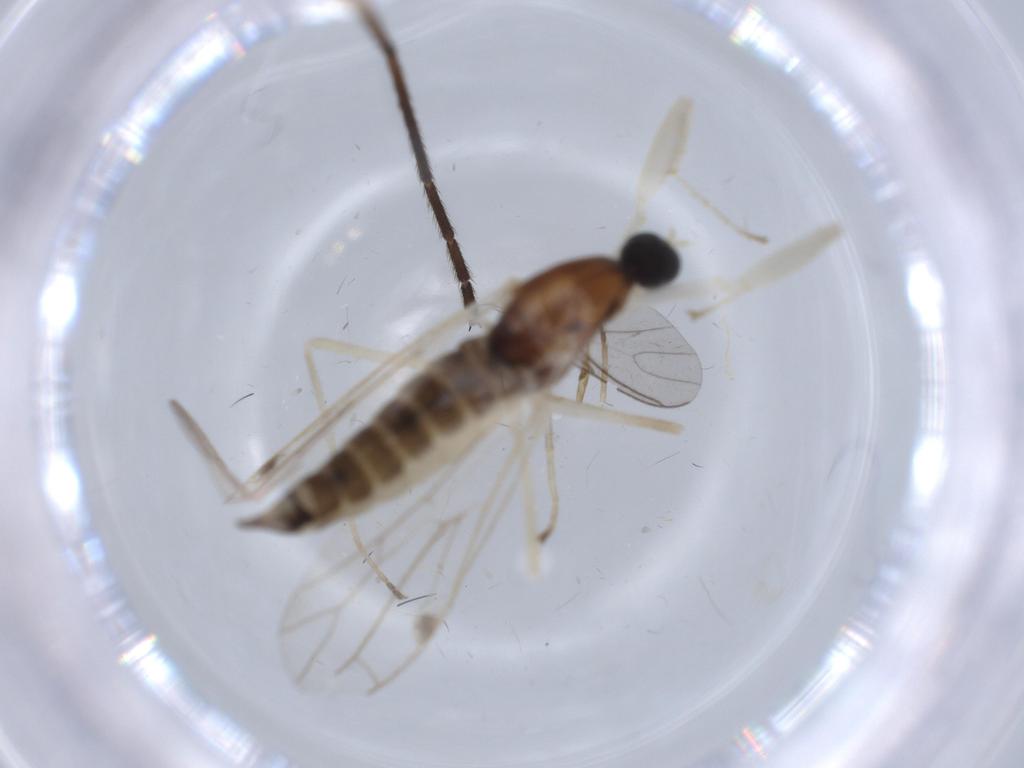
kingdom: Animalia
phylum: Arthropoda
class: Insecta
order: Diptera
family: Empididae
